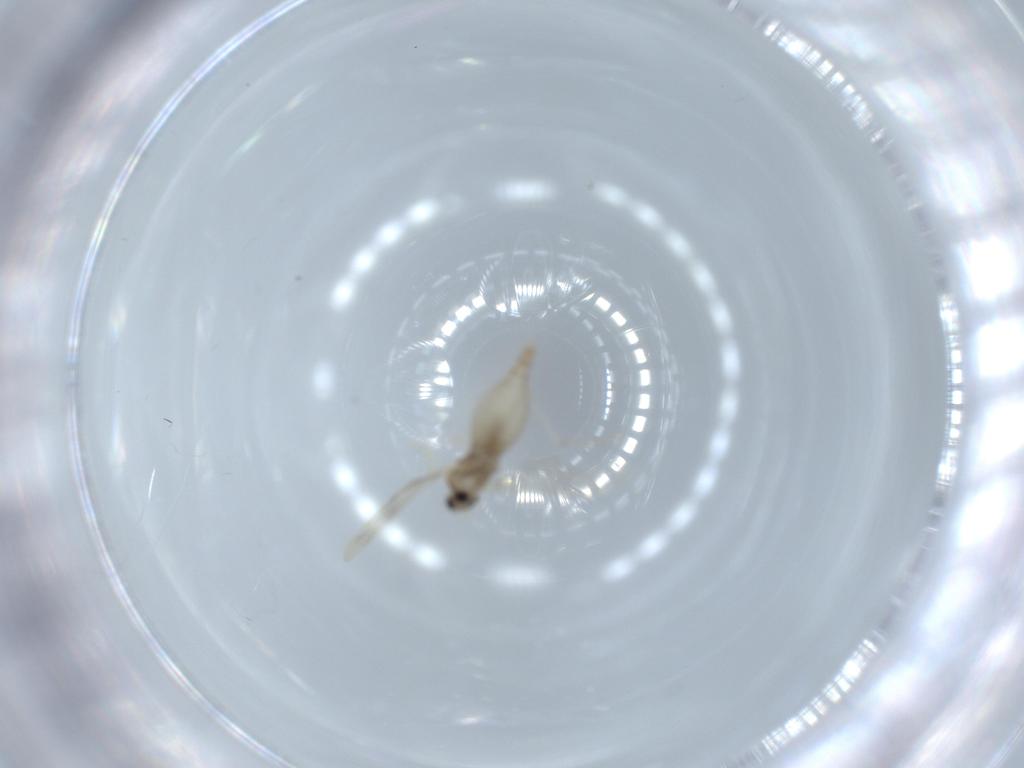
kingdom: Animalia
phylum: Arthropoda
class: Insecta
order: Diptera
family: Cecidomyiidae
